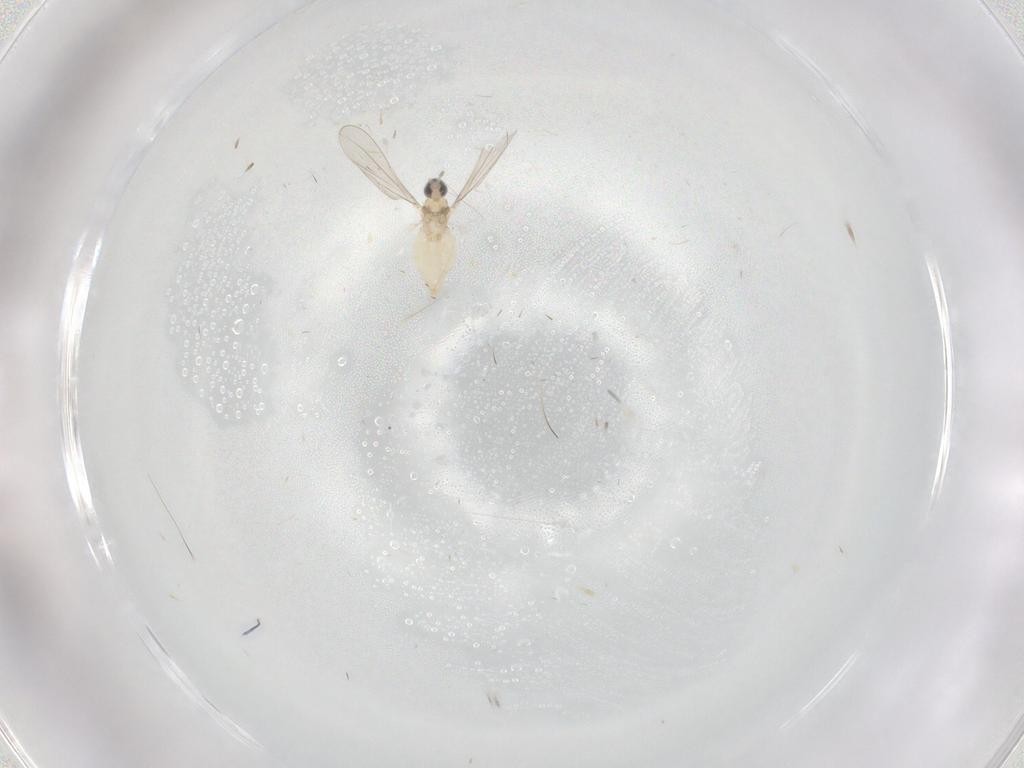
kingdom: Animalia
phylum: Arthropoda
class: Insecta
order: Diptera
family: Cecidomyiidae
